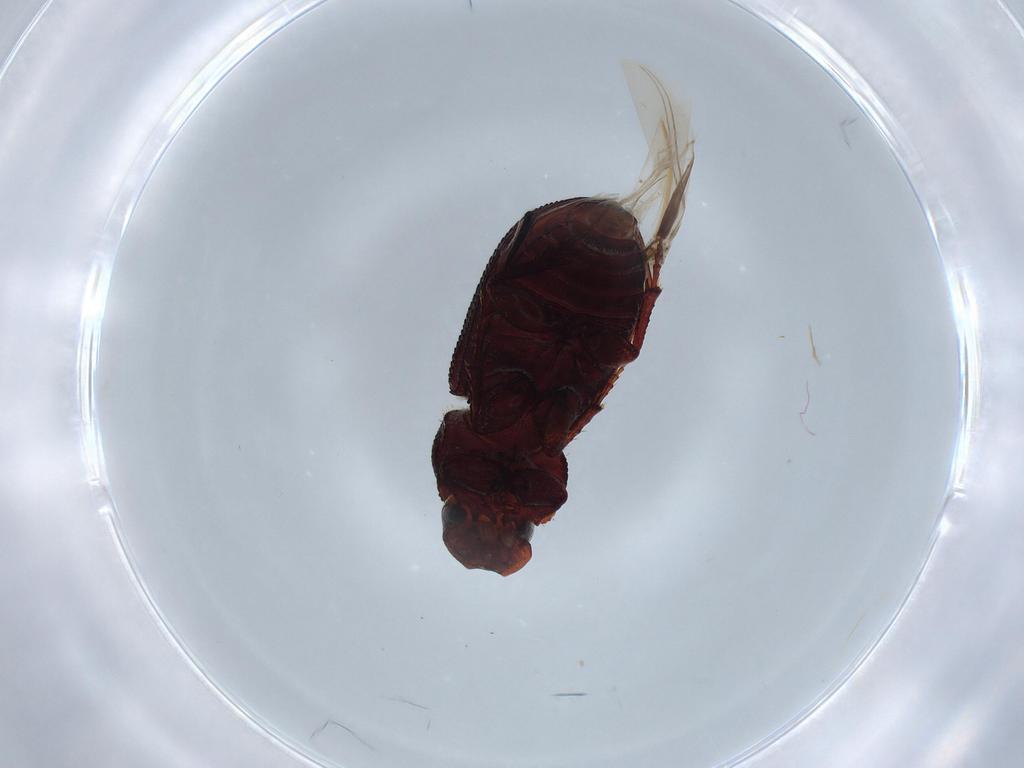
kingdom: Animalia
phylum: Arthropoda
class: Insecta
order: Coleoptera
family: Scarabaeidae
